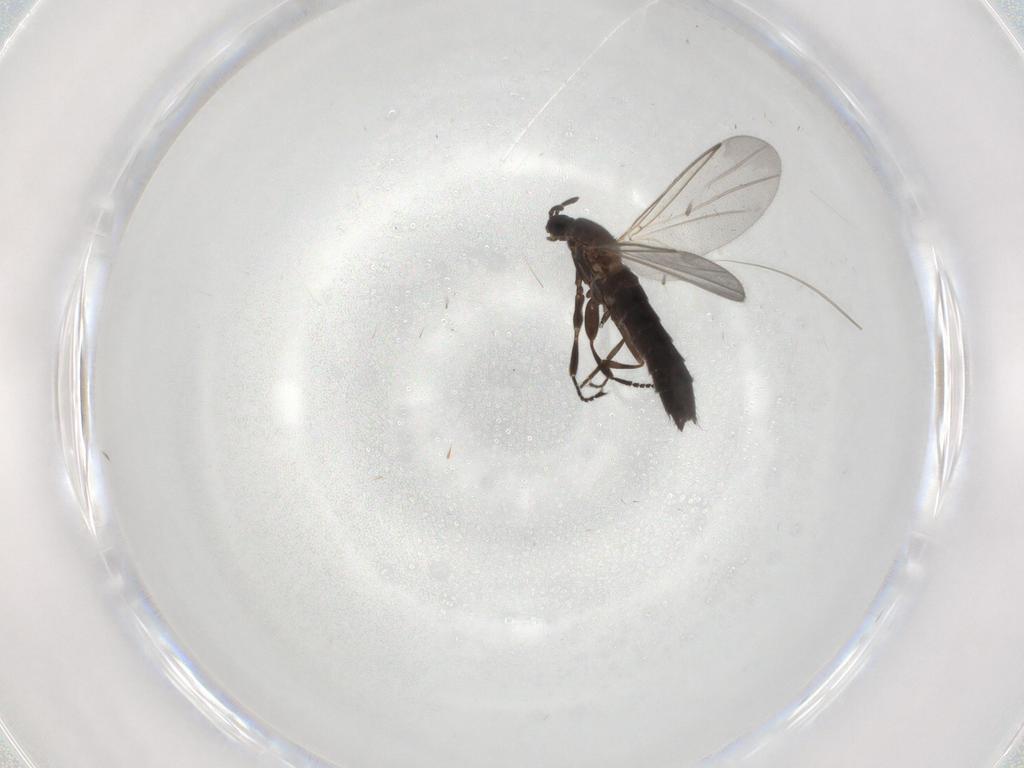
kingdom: Animalia
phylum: Arthropoda
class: Insecta
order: Diptera
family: Scatopsidae
